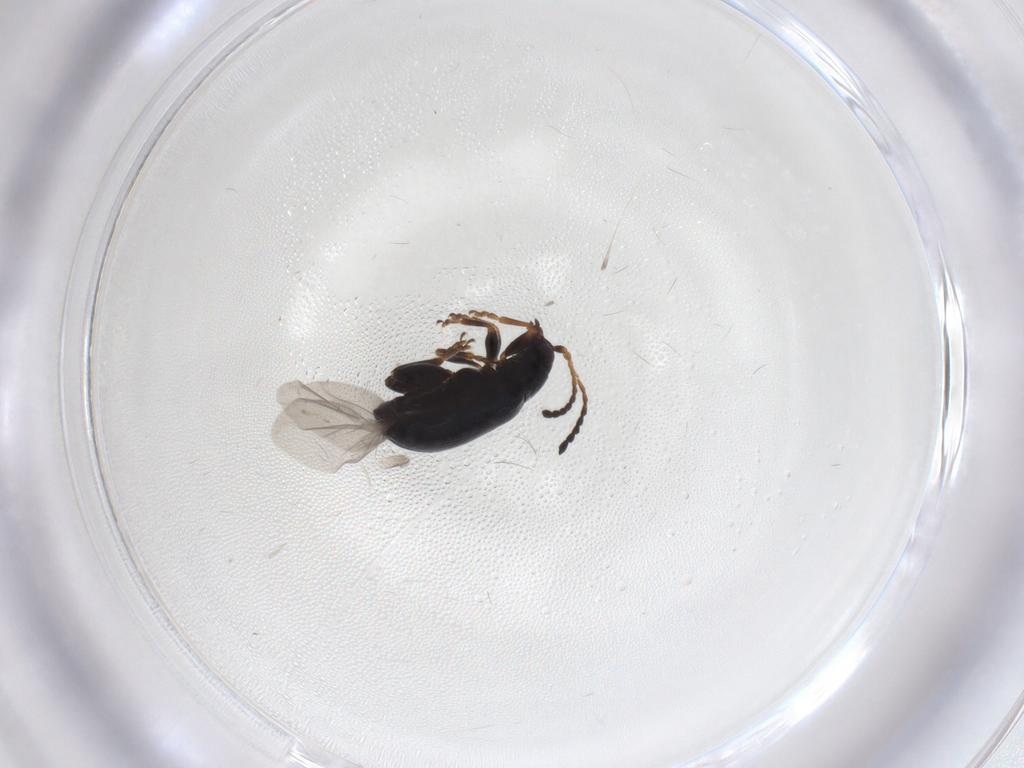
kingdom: Animalia
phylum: Arthropoda
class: Insecta
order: Coleoptera
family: Chrysomelidae
